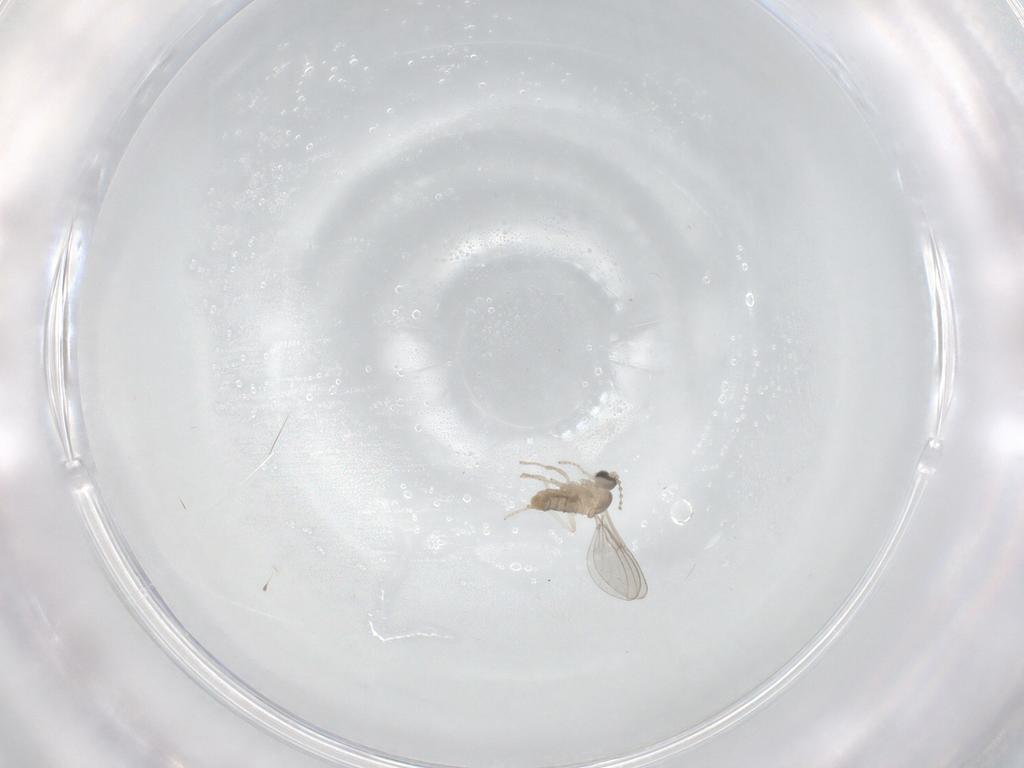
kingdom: Animalia
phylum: Arthropoda
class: Insecta
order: Diptera
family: Cecidomyiidae
